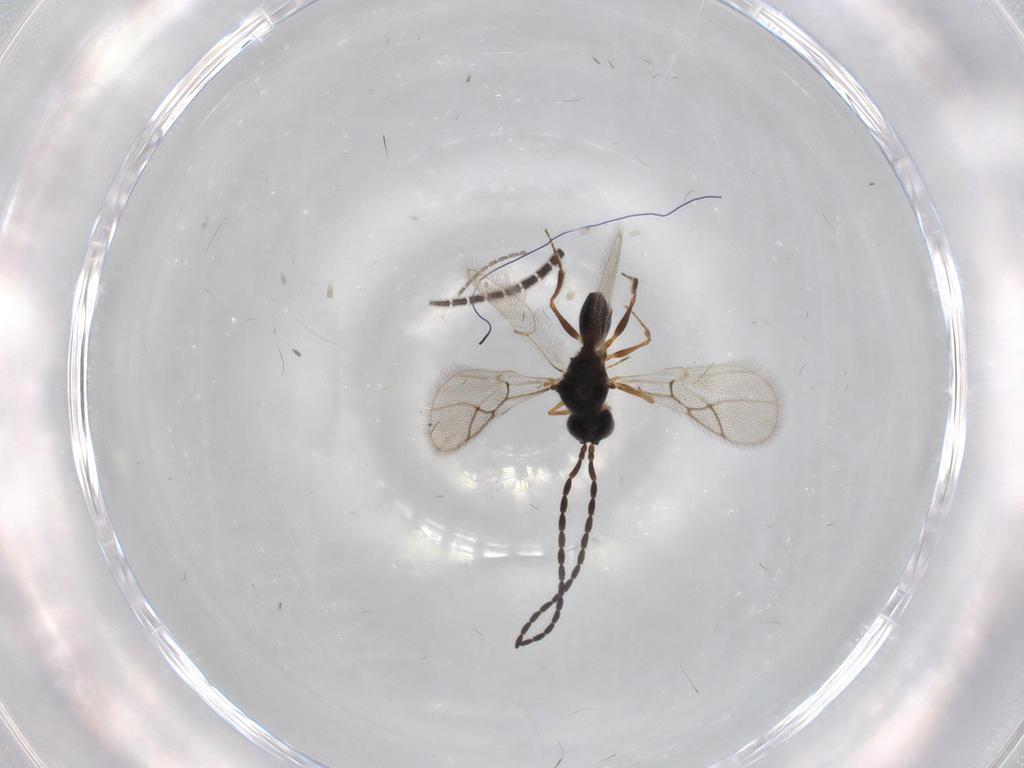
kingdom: Animalia
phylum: Arthropoda
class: Insecta
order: Hymenoptera
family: Figitidae
